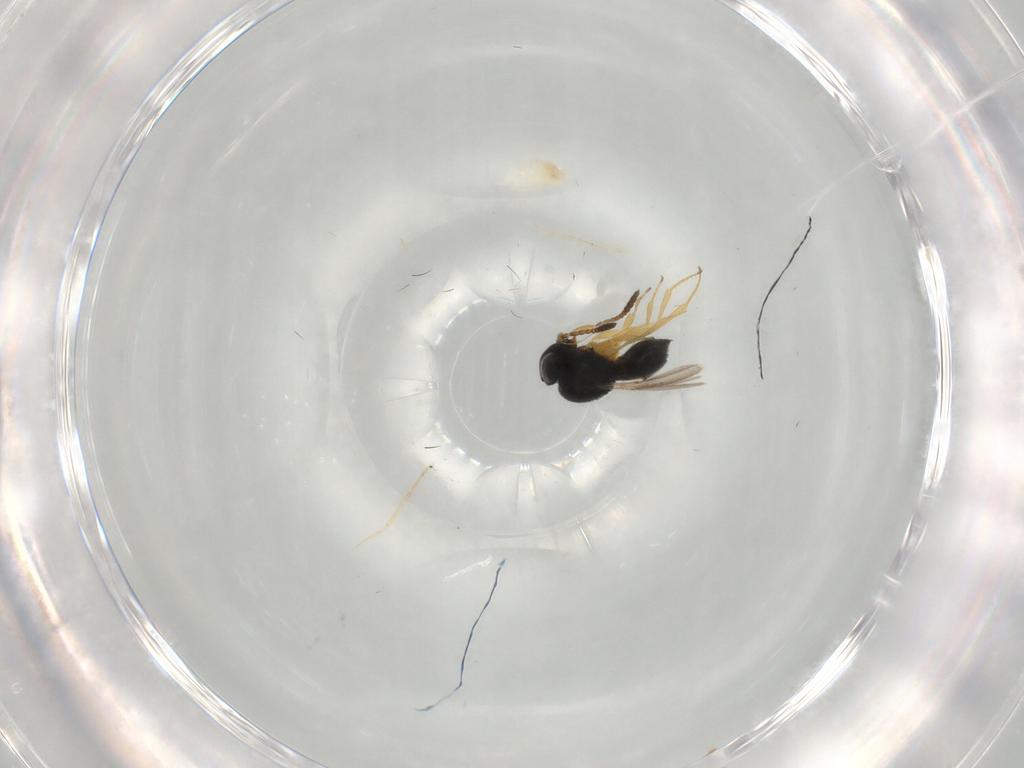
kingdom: Animalia
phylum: Arthropoda
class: Insecta
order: Hymenoptera
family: Scelionidae
